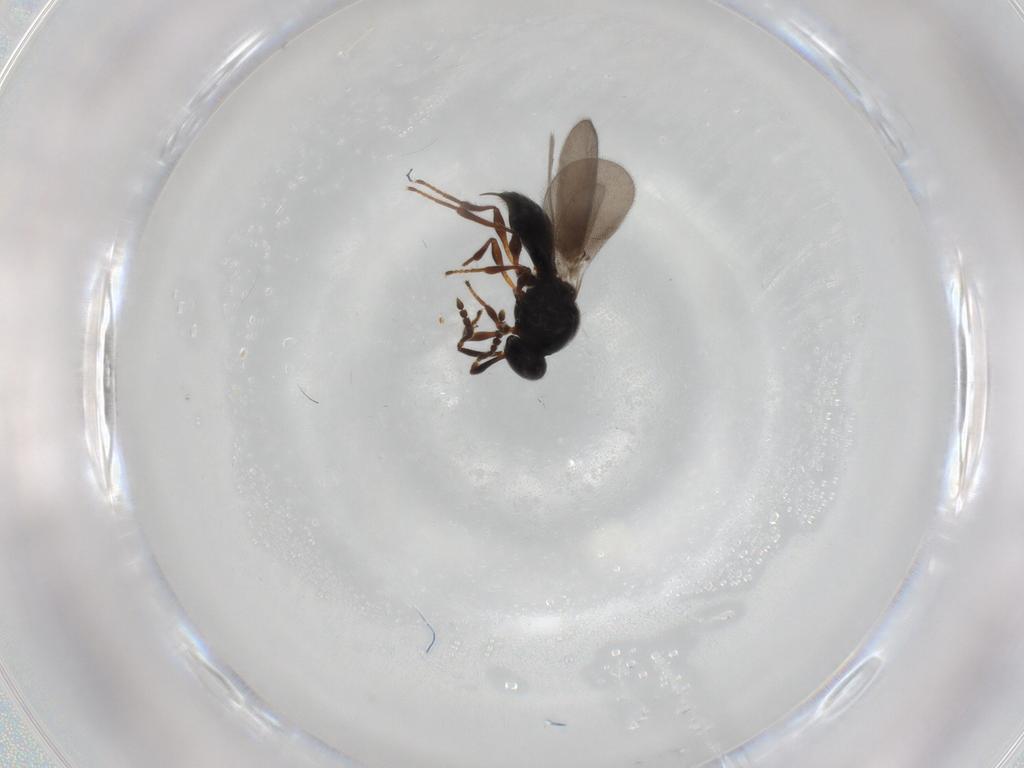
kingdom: Animalia
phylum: Arthropoda
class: Insecta
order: Hymenoptera
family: Platygastridae
